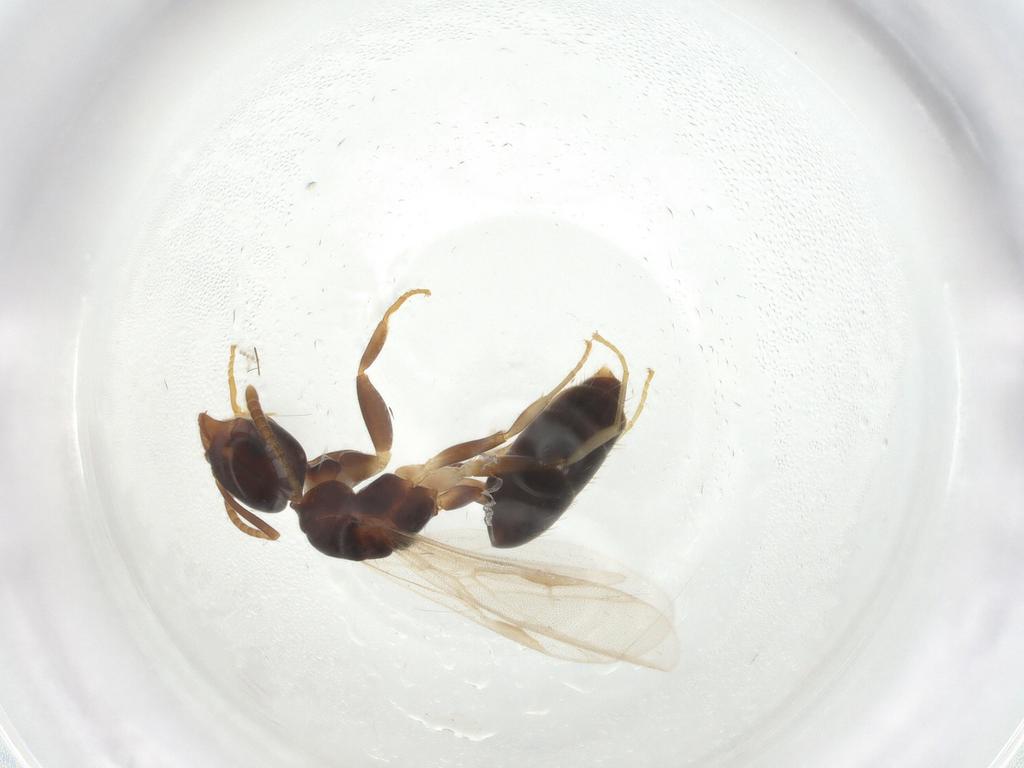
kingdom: Animalia
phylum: Arthropoda
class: Insecta
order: Hymenoptera
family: Formicidae
